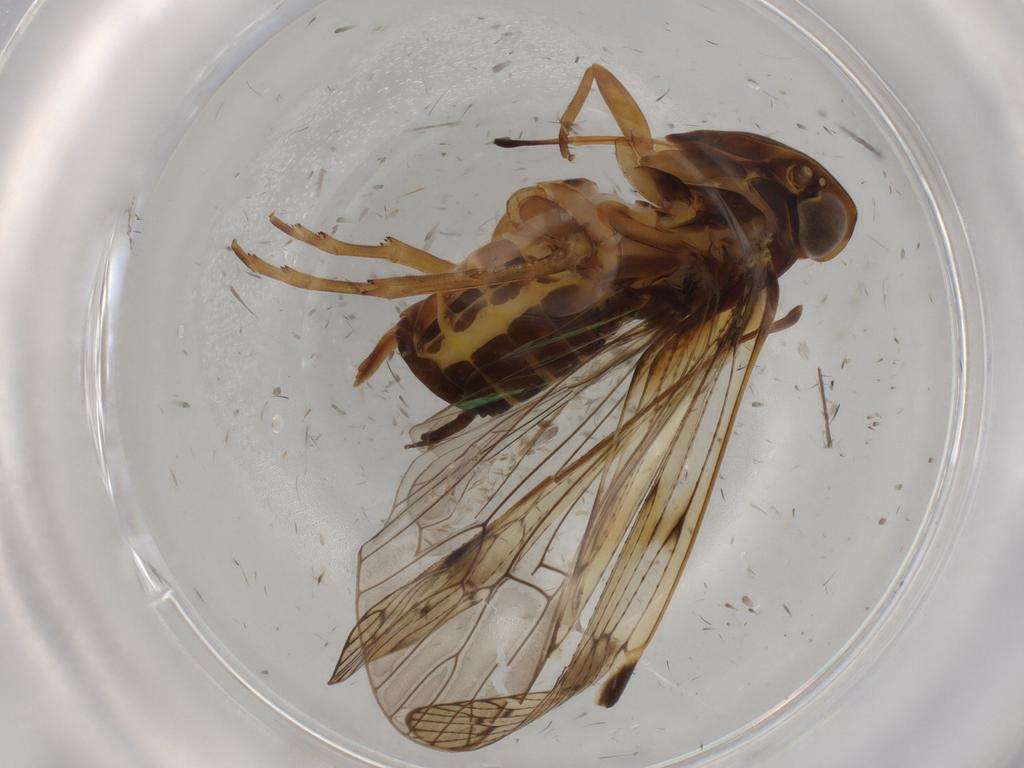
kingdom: Animalia
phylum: Arthropoda
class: Insecta
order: Hemiptera
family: Cixiidae
